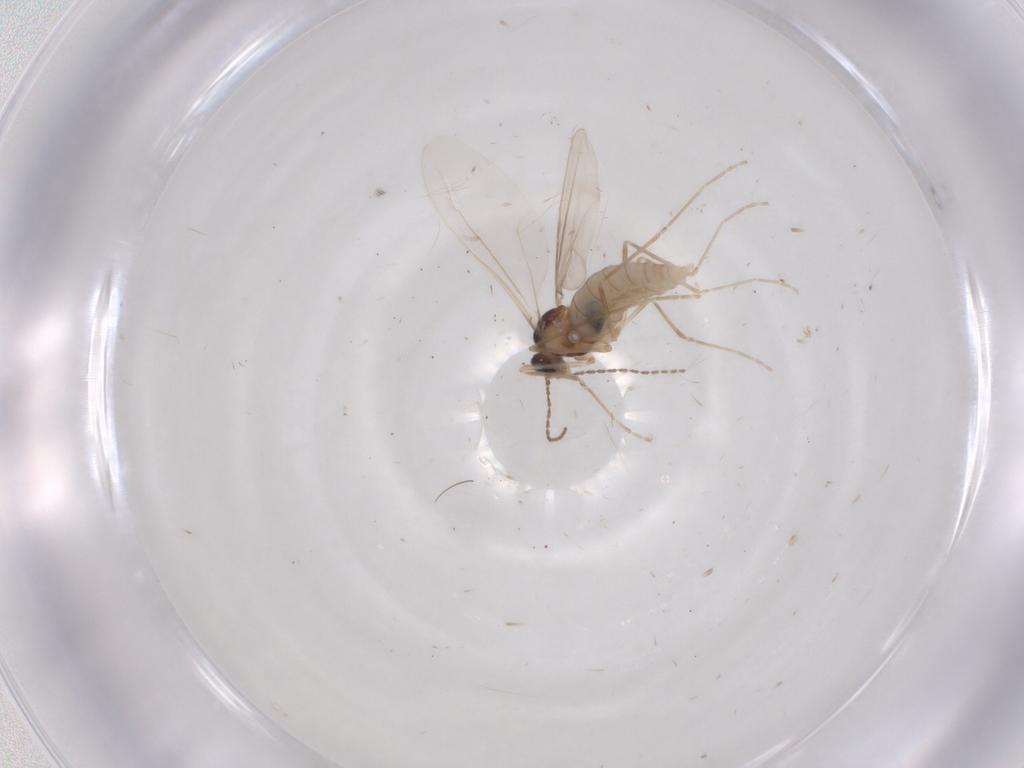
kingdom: Animalia
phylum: Arthropoda
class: Insecta
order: Diptera
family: Cecidomyiidae
